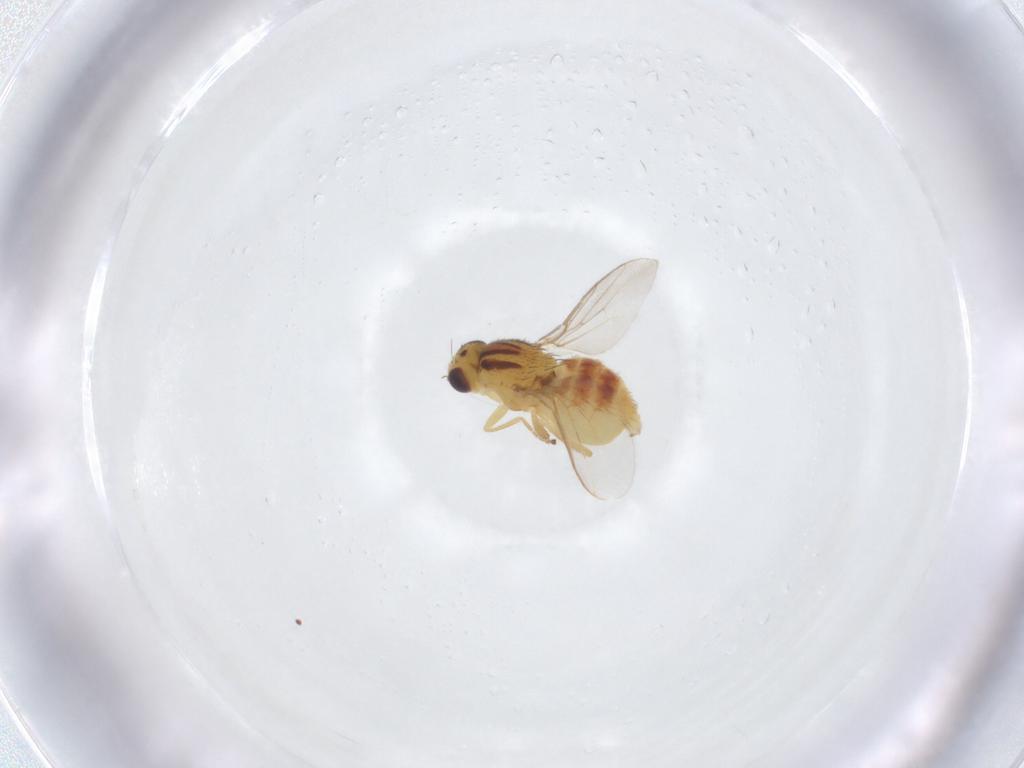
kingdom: Animalia
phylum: Arthropoda
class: Insecta
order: Diptera
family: Chloropidae
